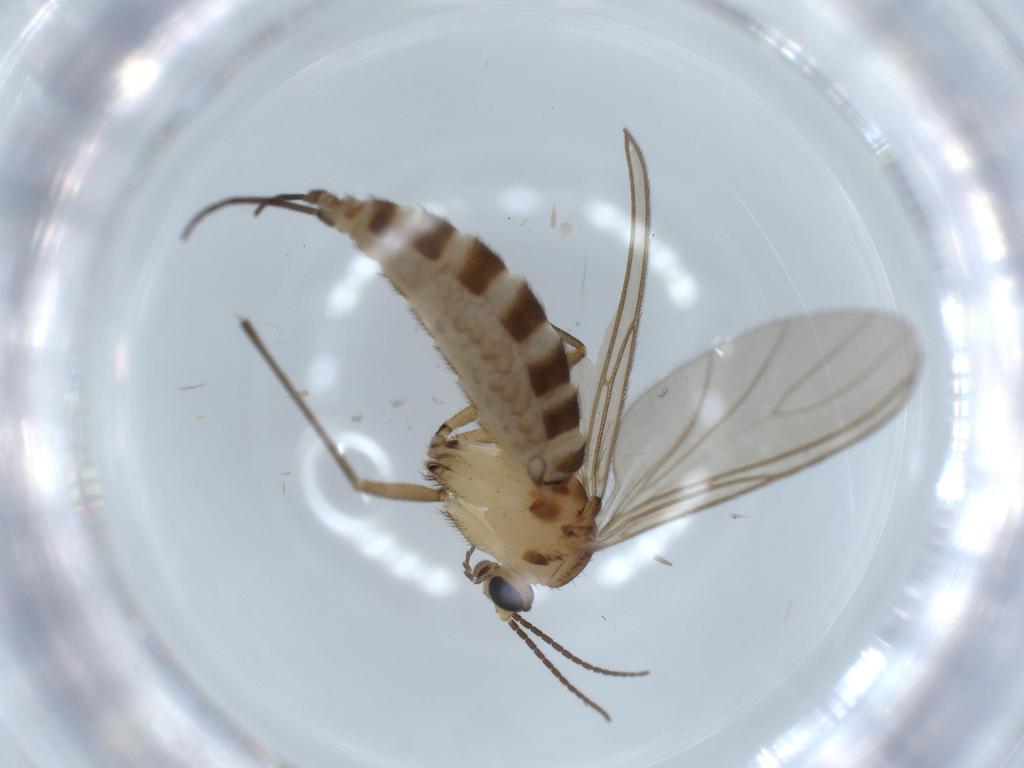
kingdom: Animalia
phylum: Arthropoda
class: Insecta
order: Diptera
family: Sciaridae
